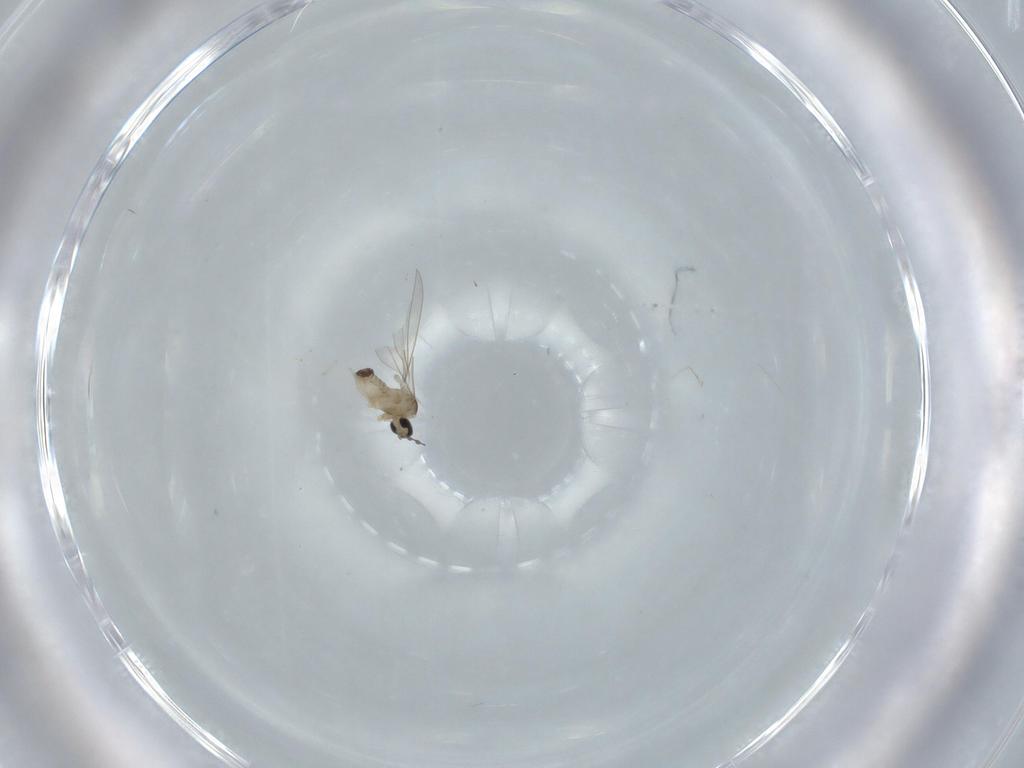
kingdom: Animalia
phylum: Arthropoda
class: Insecta
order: Diptera
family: Cecidomyiidae
